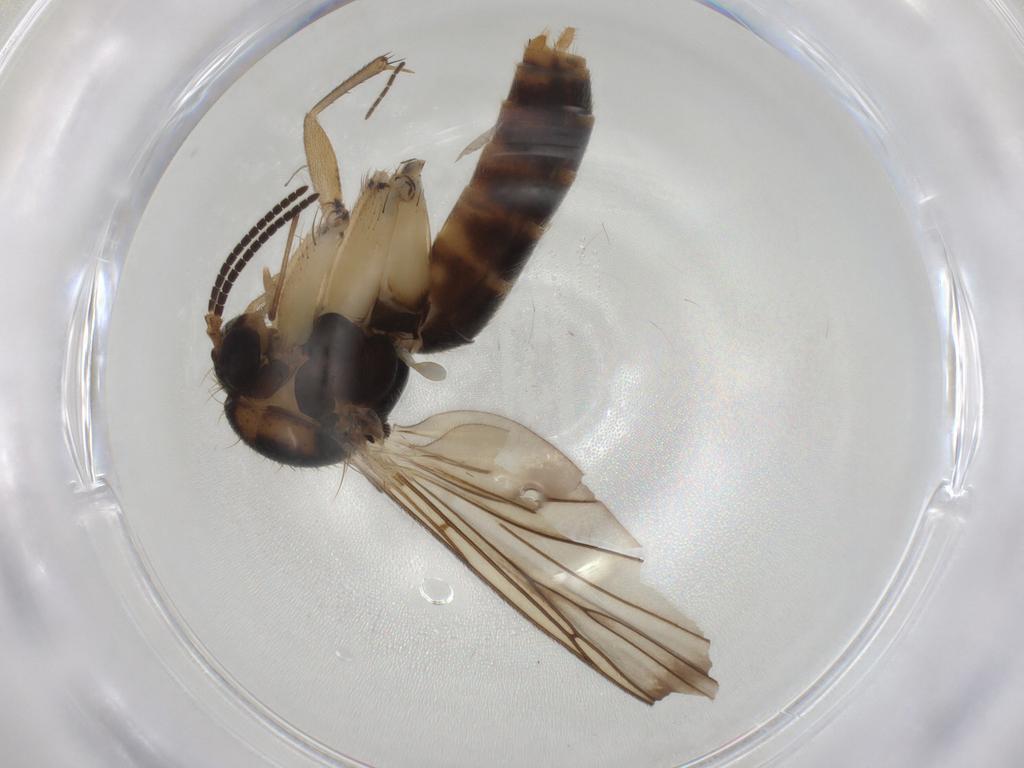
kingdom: Animalia
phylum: Arthropoda
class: Insecta
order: Diptera
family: Mycetophilidae
